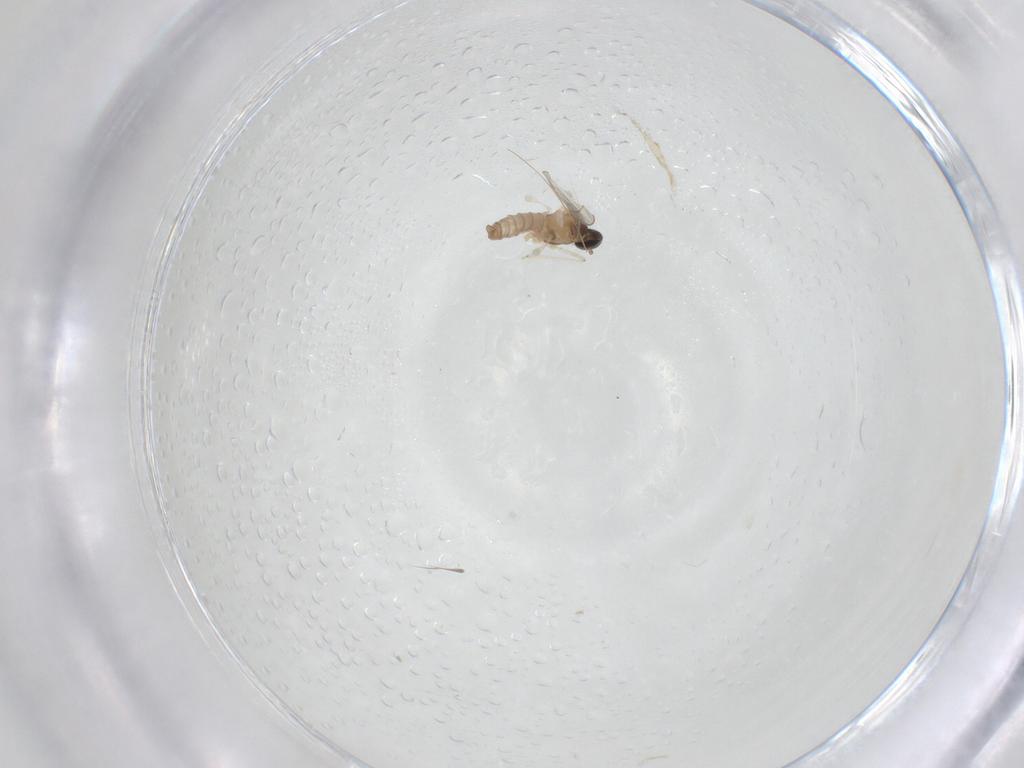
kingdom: Animalia
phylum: Arthropoda
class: Insecta
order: Diptera
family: Cecidomyiidae
